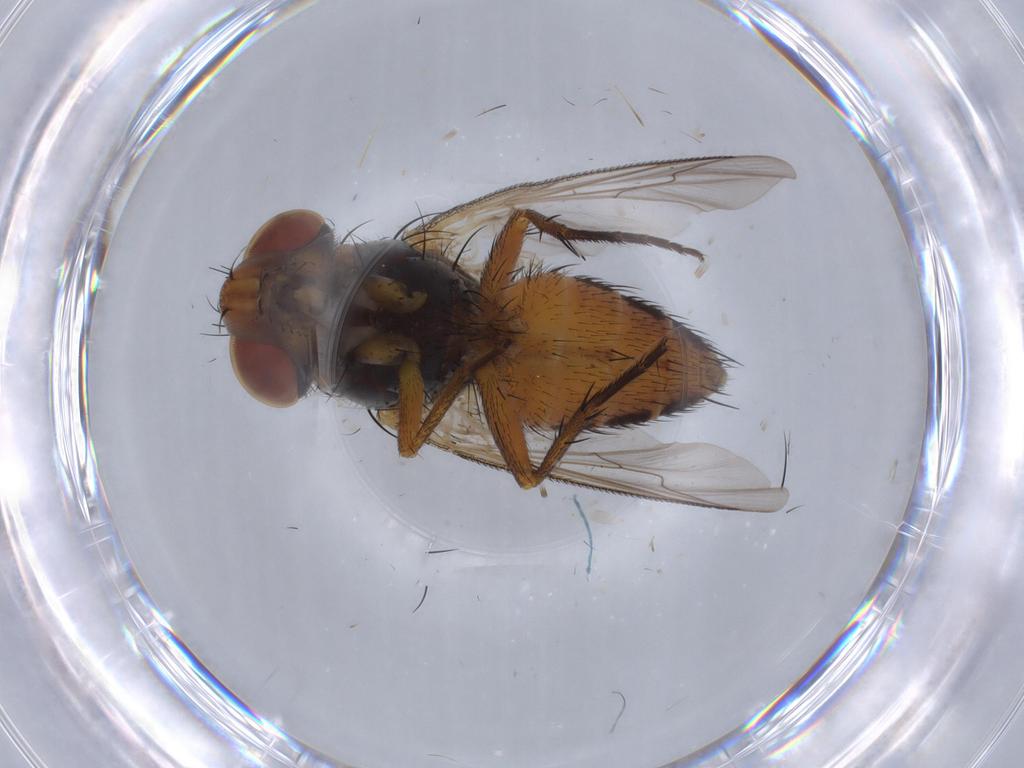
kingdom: Animalia
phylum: Arthropoda
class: Insecta
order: Diptera
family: Sarcophagidae
